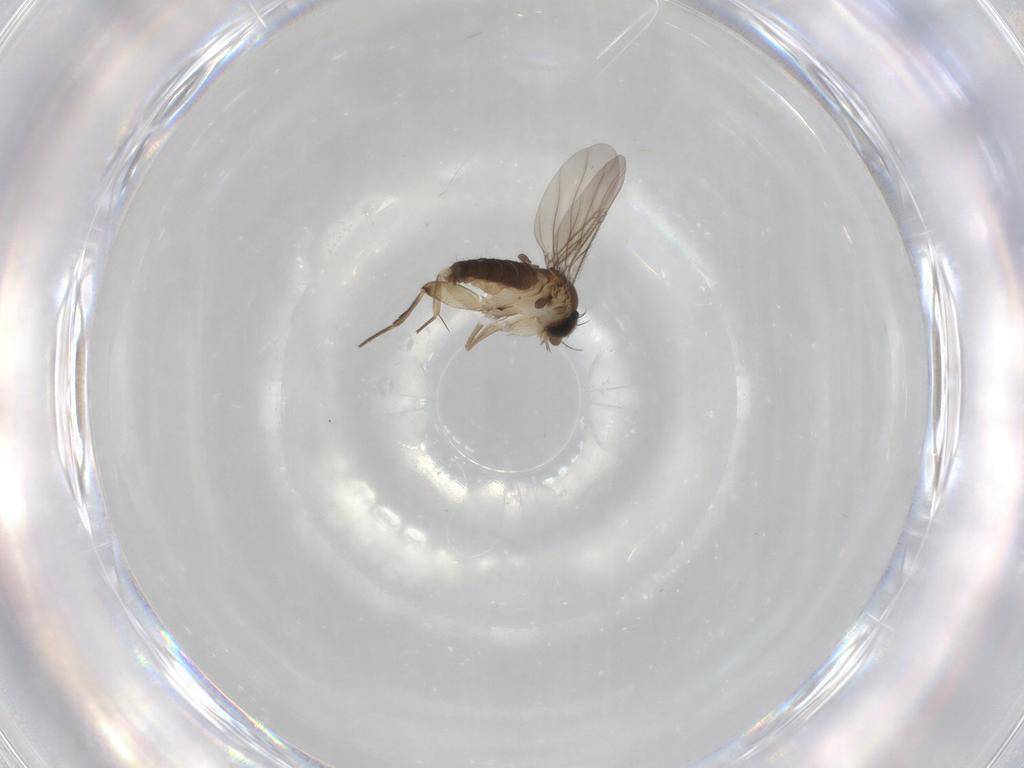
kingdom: Animalia
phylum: Arthropoda
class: Insecta
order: Diptera
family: Phoridae
